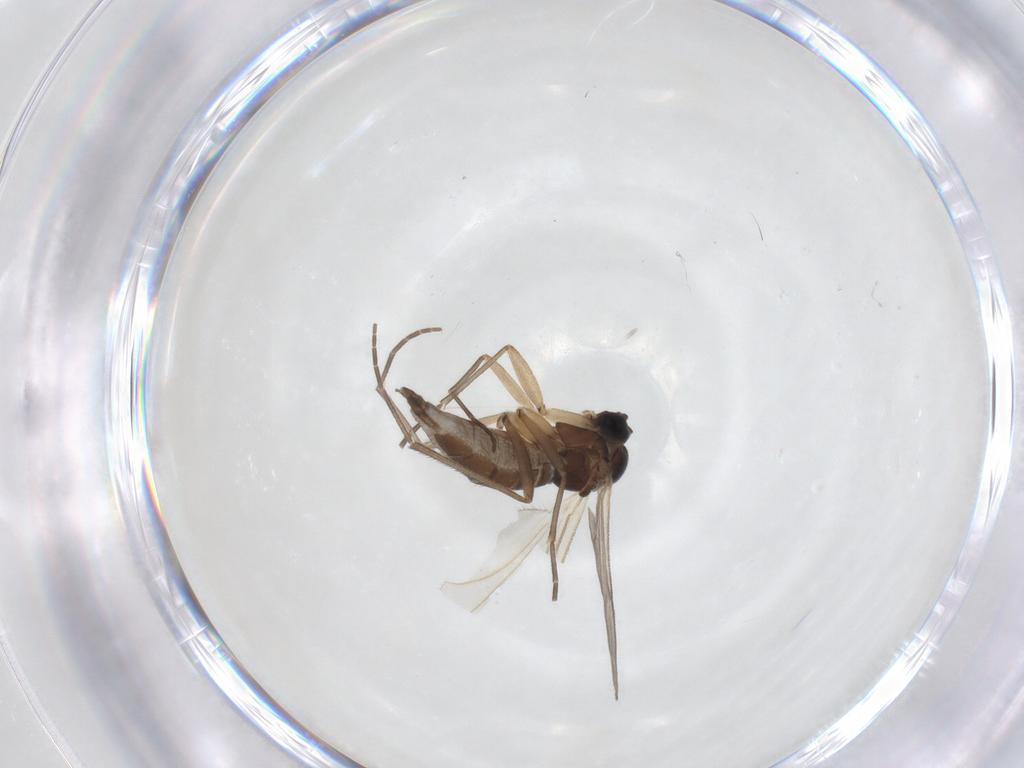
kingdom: Animalia
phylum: Arthropoda
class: Insecta
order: Diptera
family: Sciaridae
